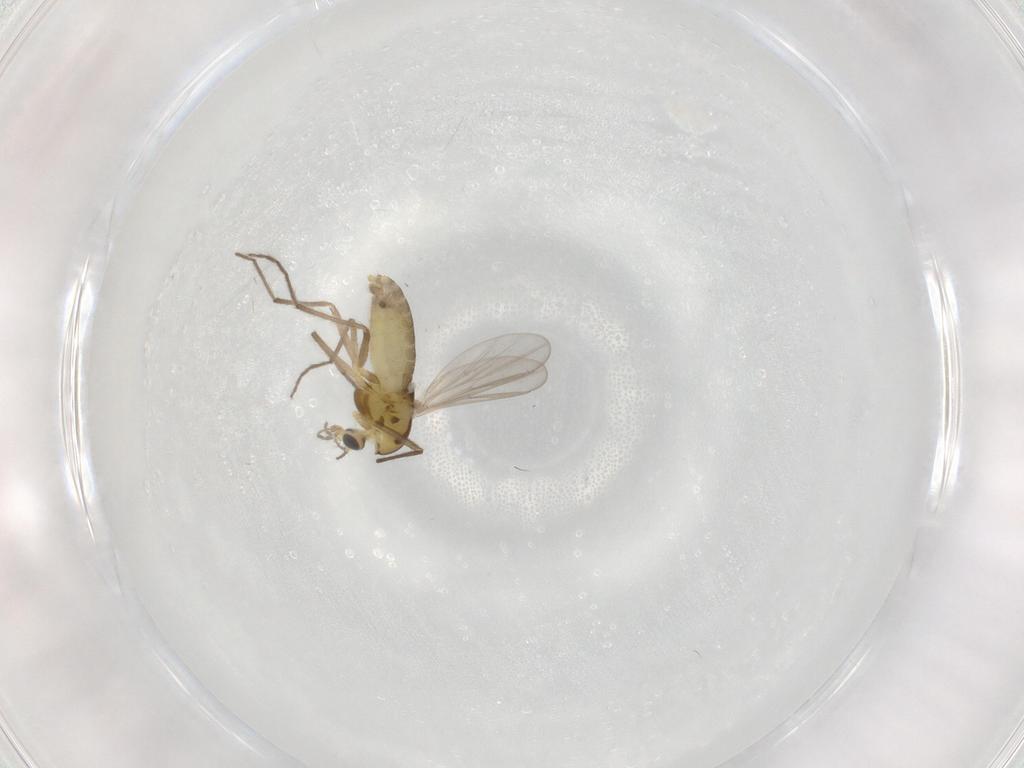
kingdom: Animalia
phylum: Arthropoda
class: Insecta
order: Diptera
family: Chironomidae
